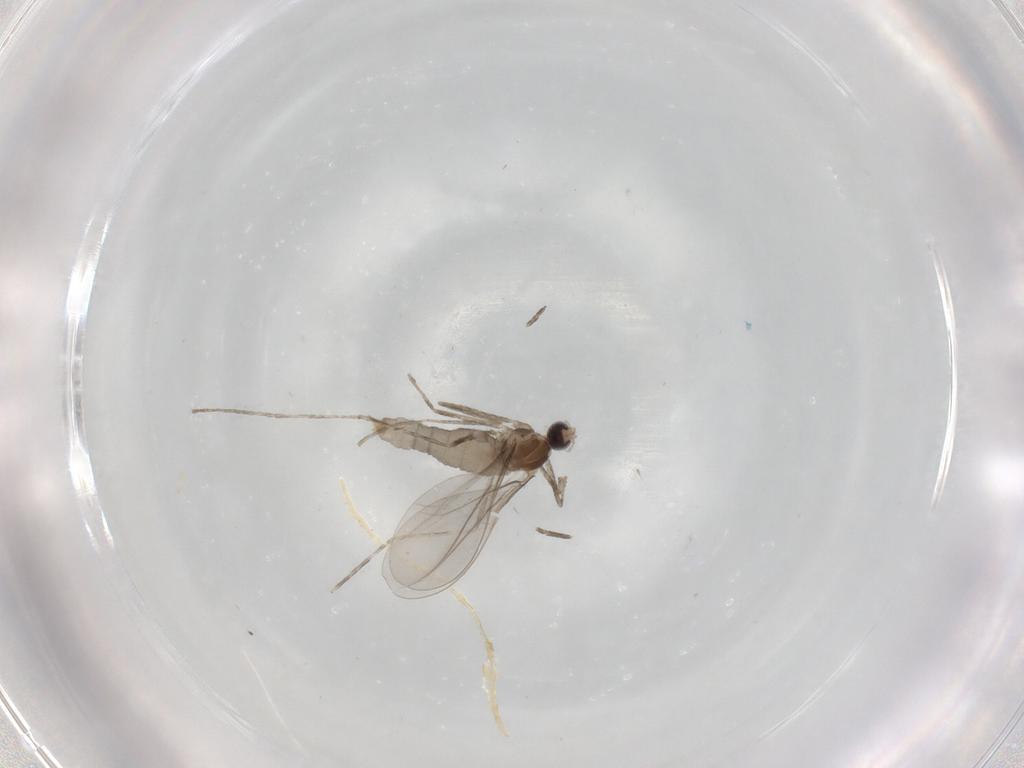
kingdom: Animalia
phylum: Arthropoda
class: Insecta
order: Diptera
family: Cecidomyiidae
